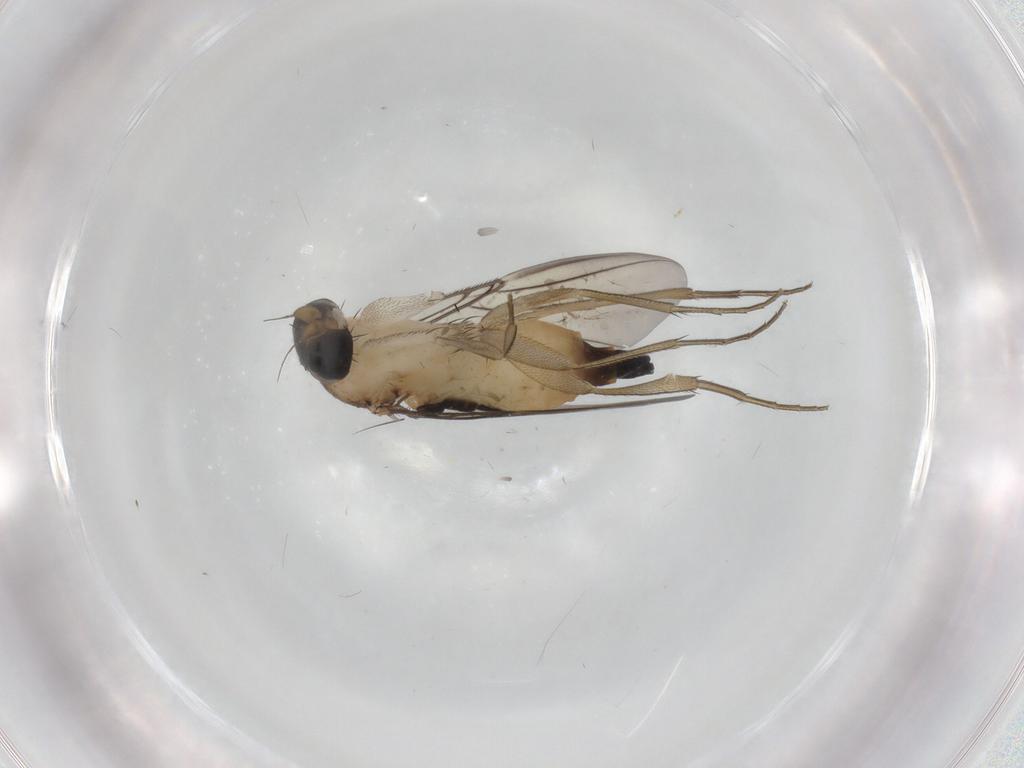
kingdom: Animalia
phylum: Arthropoda
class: Insecta
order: Diptera
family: Phoridae
